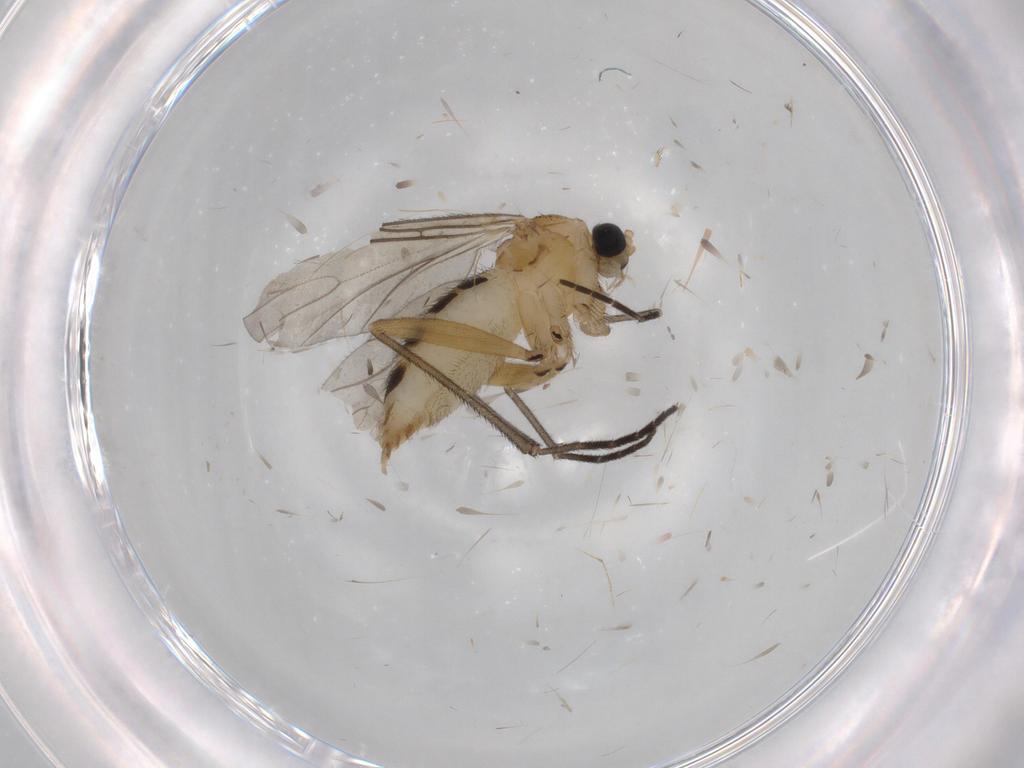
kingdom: Animalia
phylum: Arthropoda
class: Insecta
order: Diptera
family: Sciaridae
